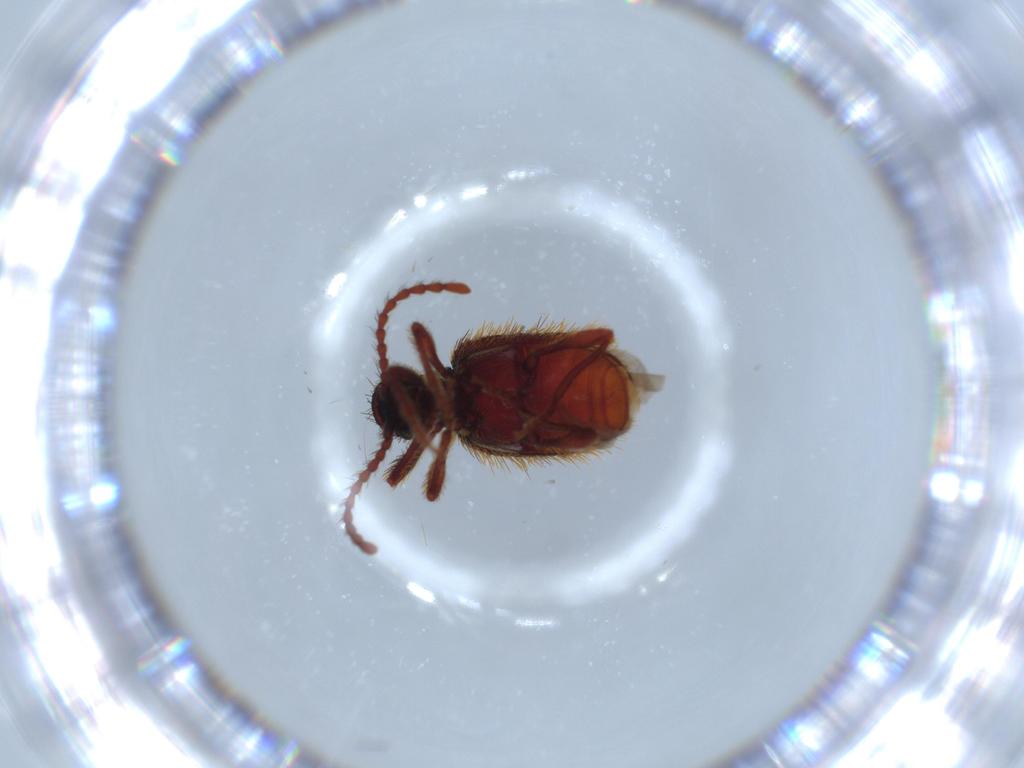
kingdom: Animalia
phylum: Arthropoda
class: Insecta
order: Coleoptera
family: Ptinidae
